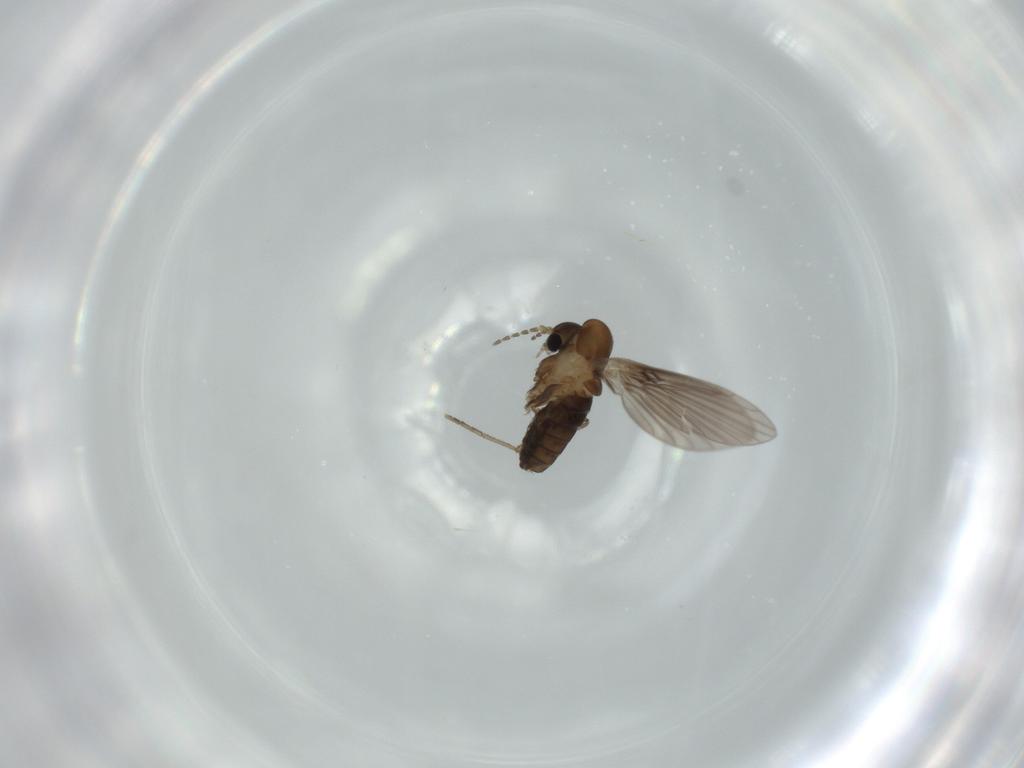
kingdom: Animalia
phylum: Arthropoda
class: Insecta
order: Diptera
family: Psychodidae
